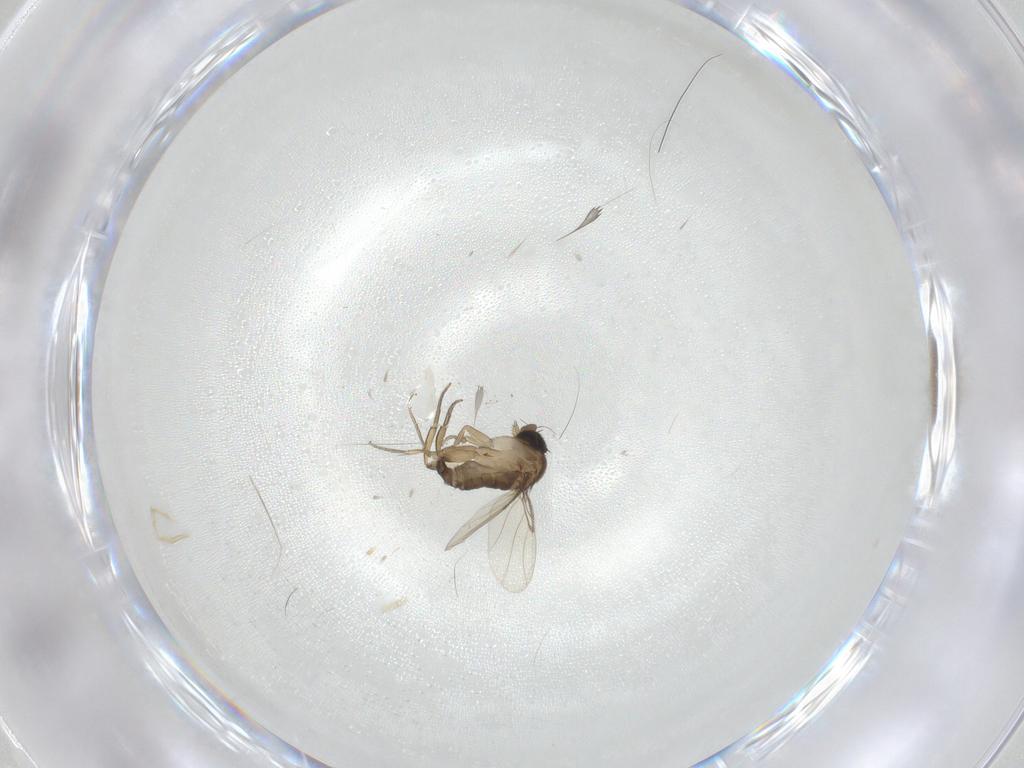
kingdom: Animalia
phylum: Arthropoda
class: Insecta
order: Diptera
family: Phoridae
